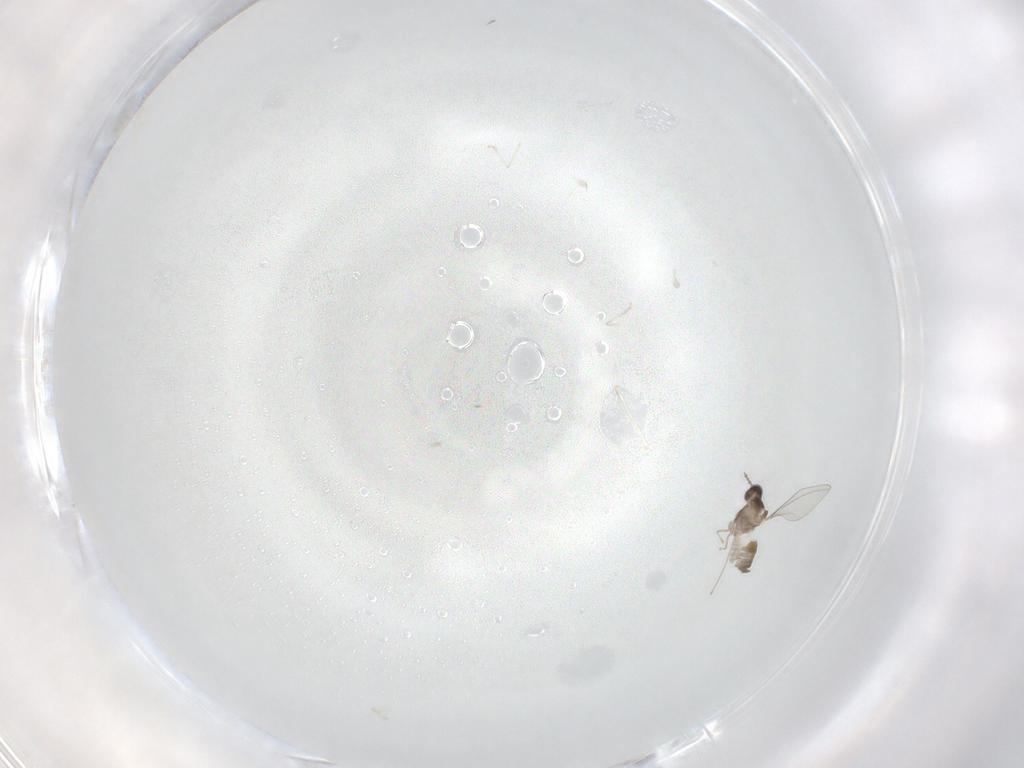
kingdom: Animalia
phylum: Arthropoda
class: Insecta
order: Diptera
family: Cecidomyiidae
